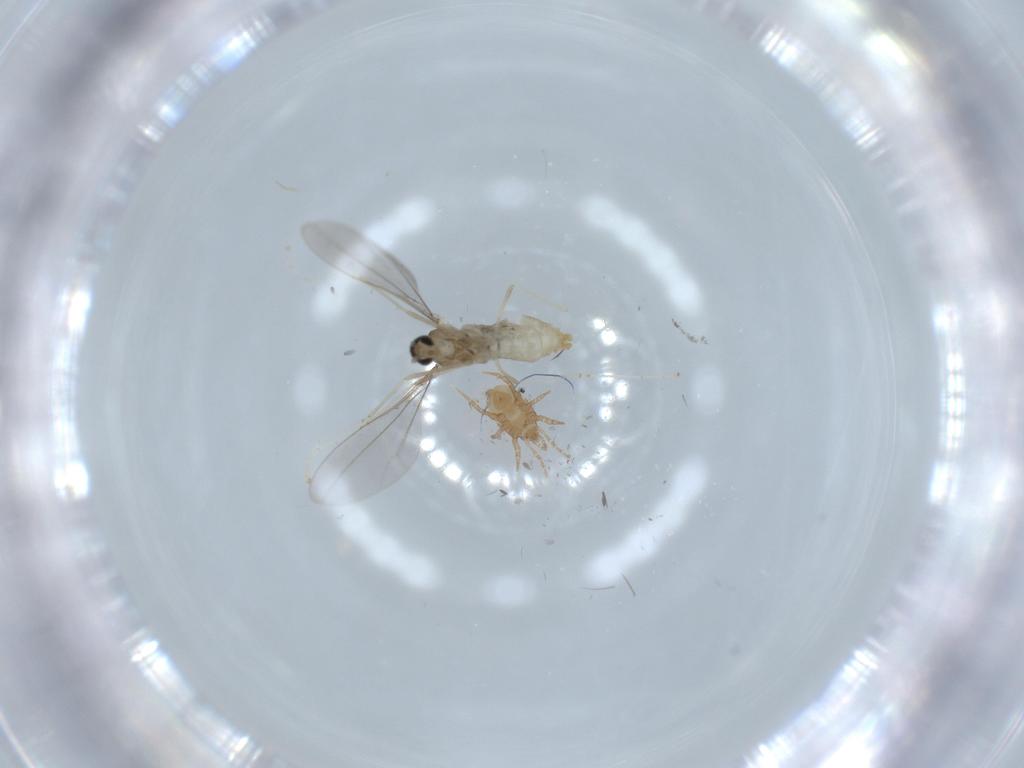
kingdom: Animalia
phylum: Arthropoda
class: Insecta
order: Diptera
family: Cecidomyiidae
